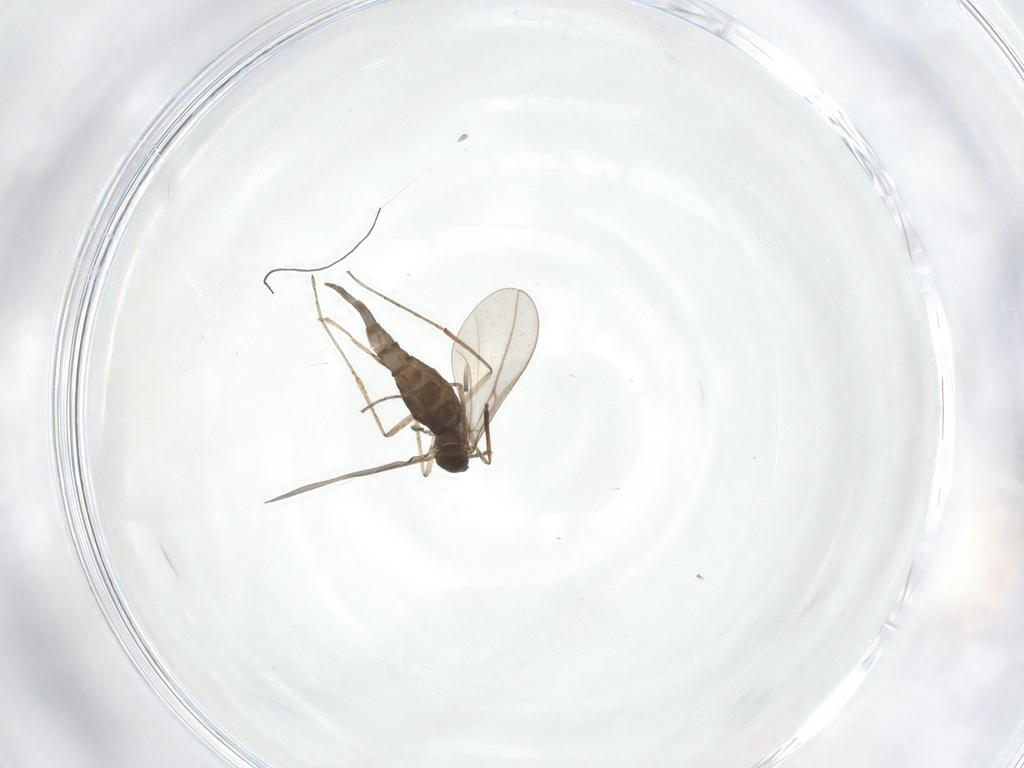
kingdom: Animalia
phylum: Arthropoda
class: Insecta
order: Diptera
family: Cecidomyiidae
